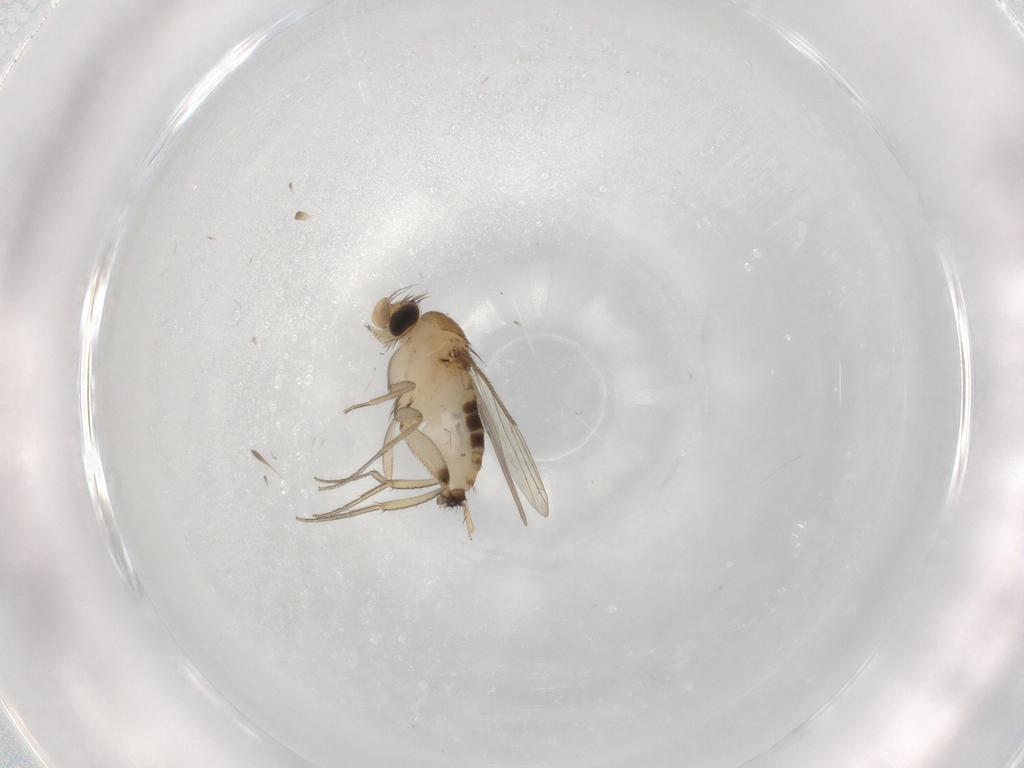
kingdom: Animalia
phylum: Arthropoda
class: Insecta
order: Diptera
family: Phoridae
